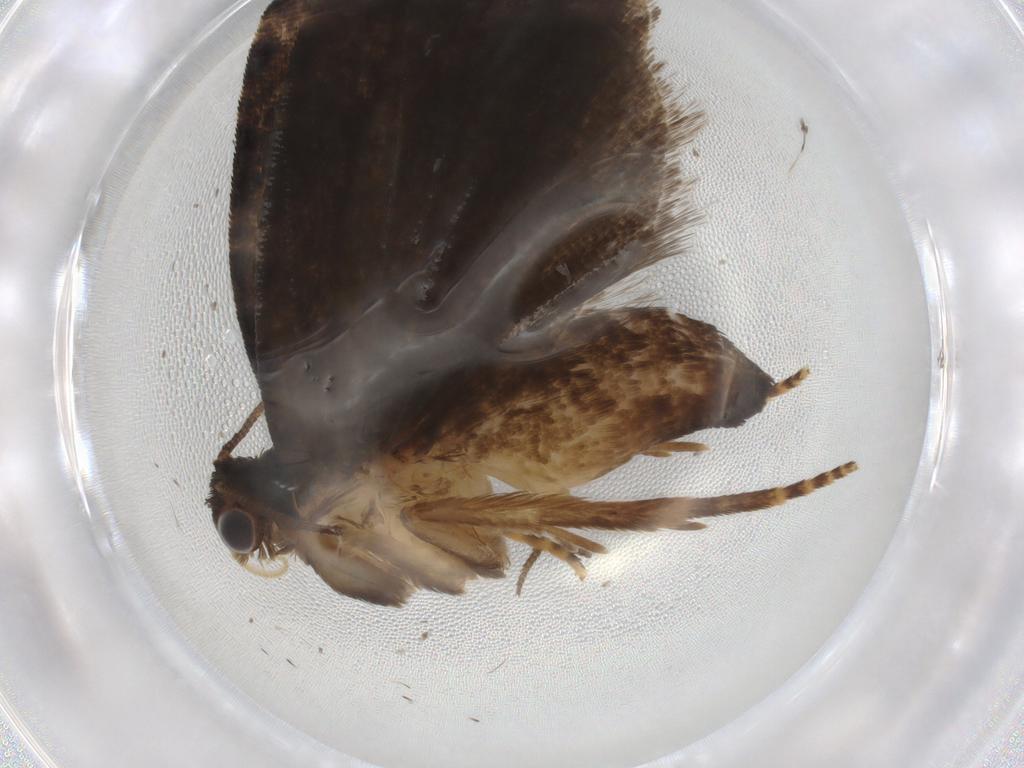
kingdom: Animalia
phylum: Arthropoda
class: Insecta
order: Lepidoptera
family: Tortricidae
